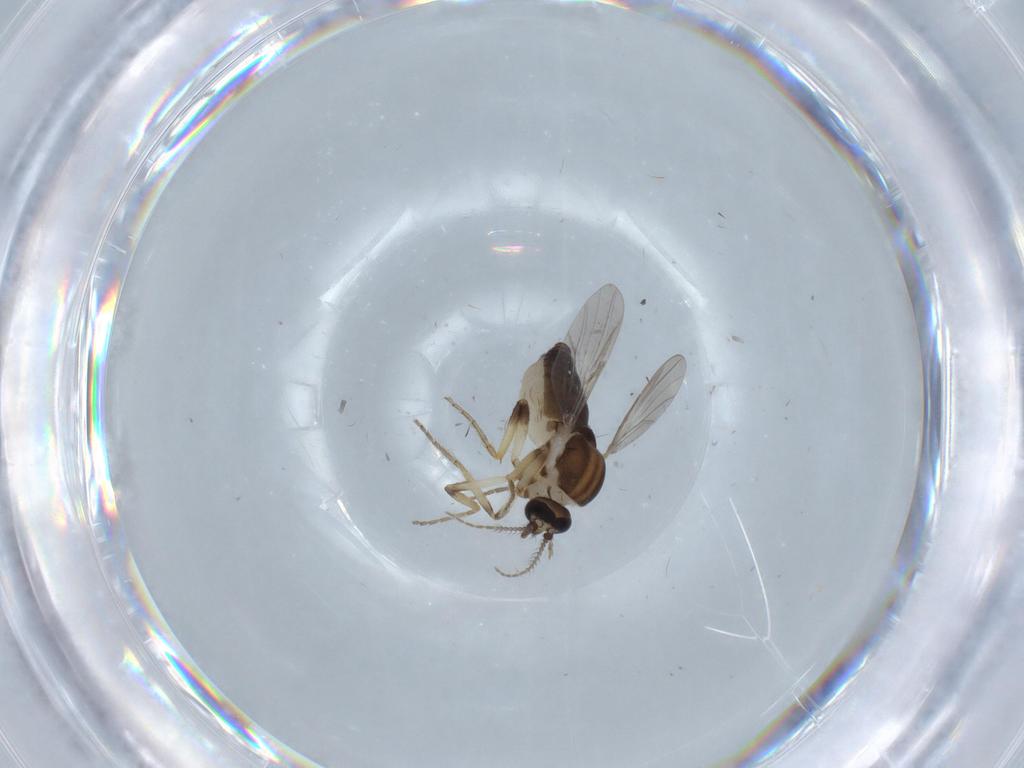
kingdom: Animalia
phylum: Arthropoda
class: Insecta
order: Diptera
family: Ceratopogonidae
